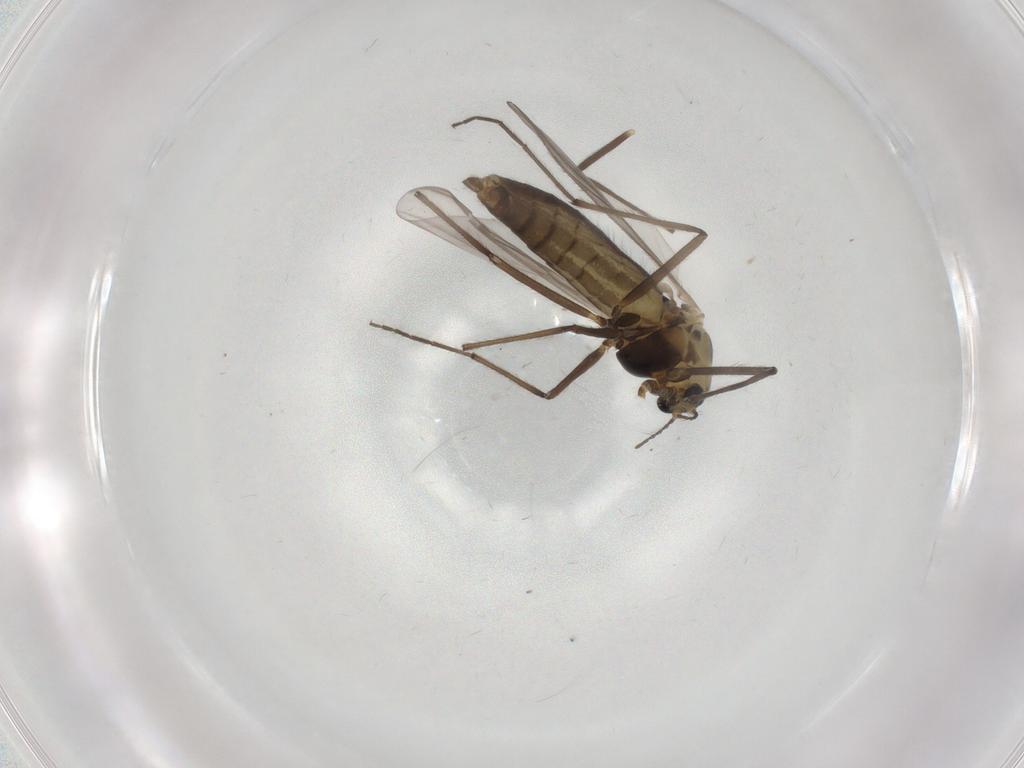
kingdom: Animalia
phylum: Arthropoda
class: Insecta
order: Diptera
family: Chironomidae
